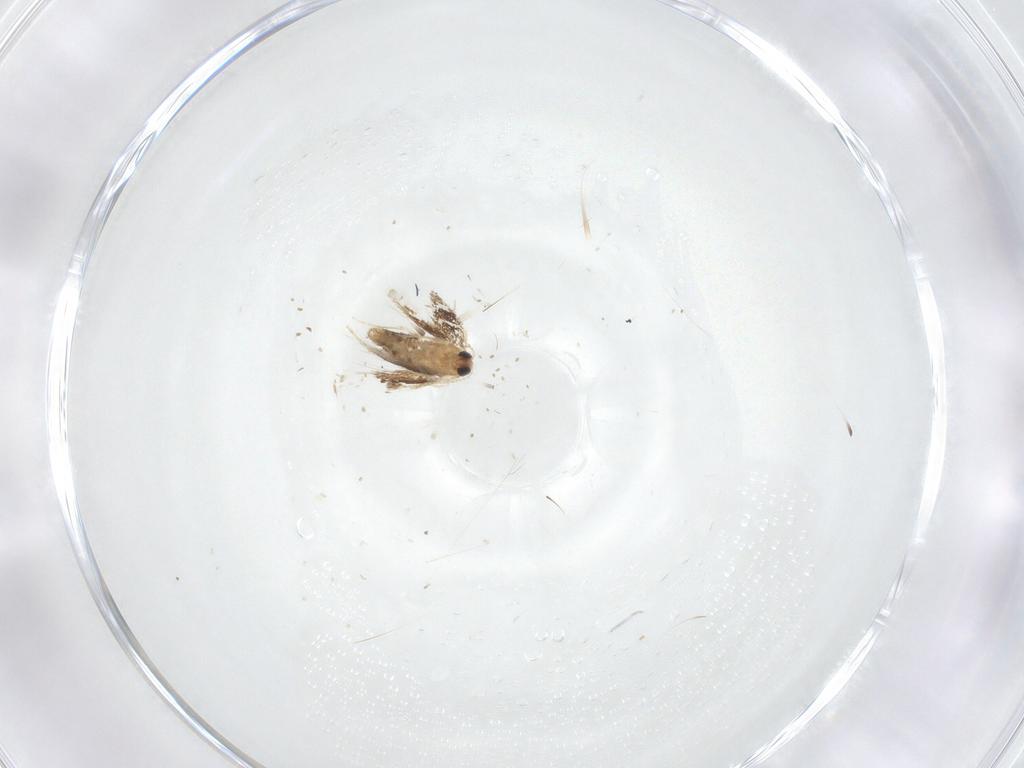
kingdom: Animalia
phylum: Arthropoda
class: Insecta
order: Lepidoptera
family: Nepticulidae
